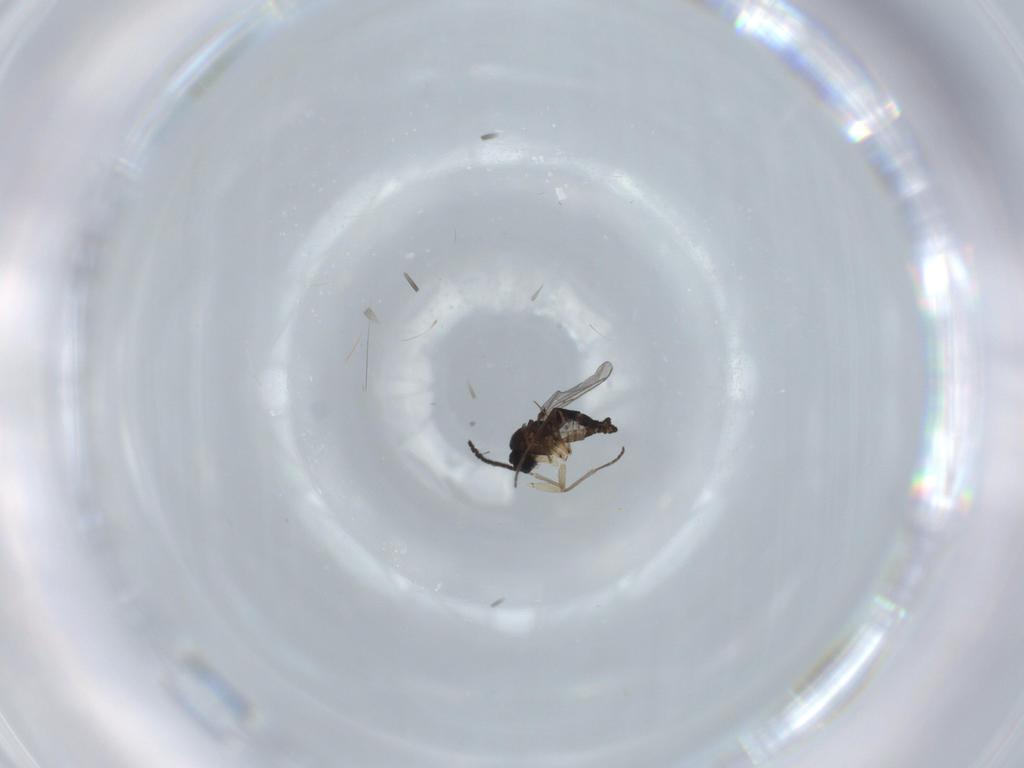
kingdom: Animalia
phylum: Arthropoda
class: Insecta
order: Diptera
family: Sciaridae
